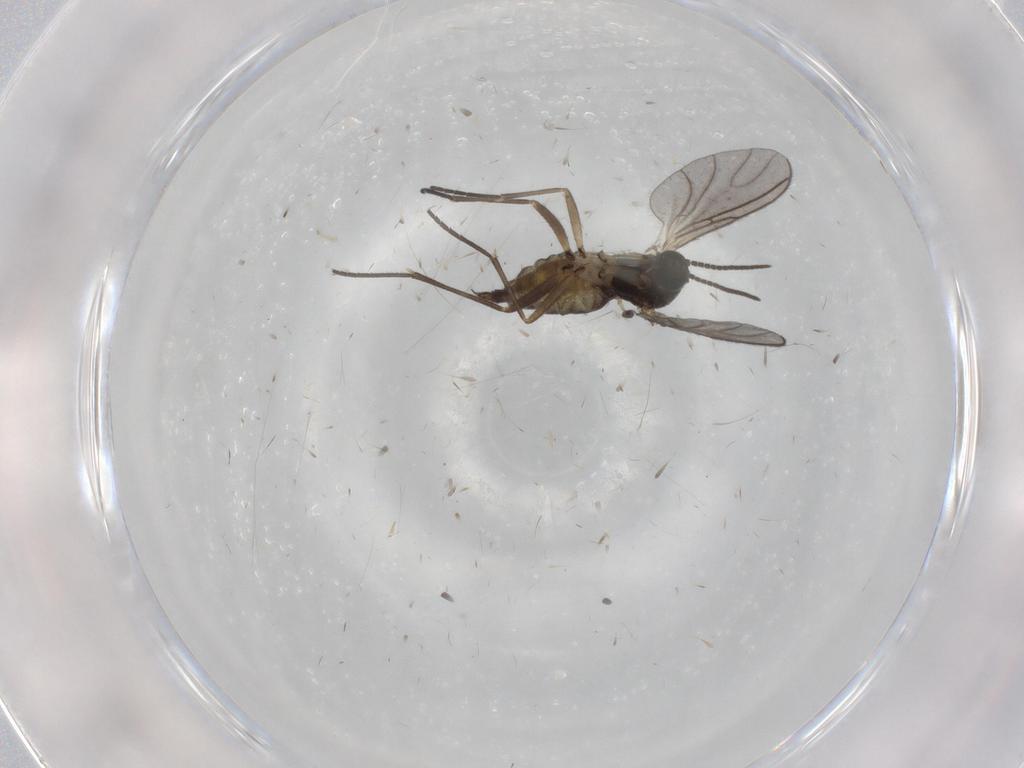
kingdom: Animalia
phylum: Arthropoda
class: Insecta
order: Diptera
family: Sciaridae
